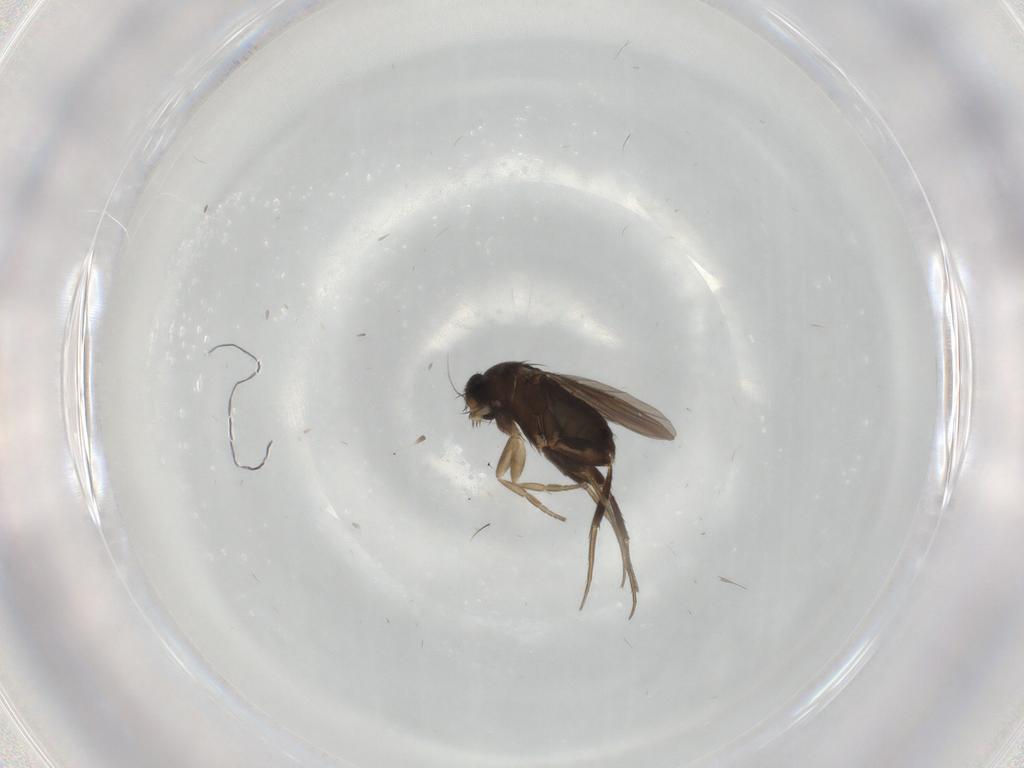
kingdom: Animalia
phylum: Arthropoda
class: Insecta
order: Diptera
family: Phoridae
